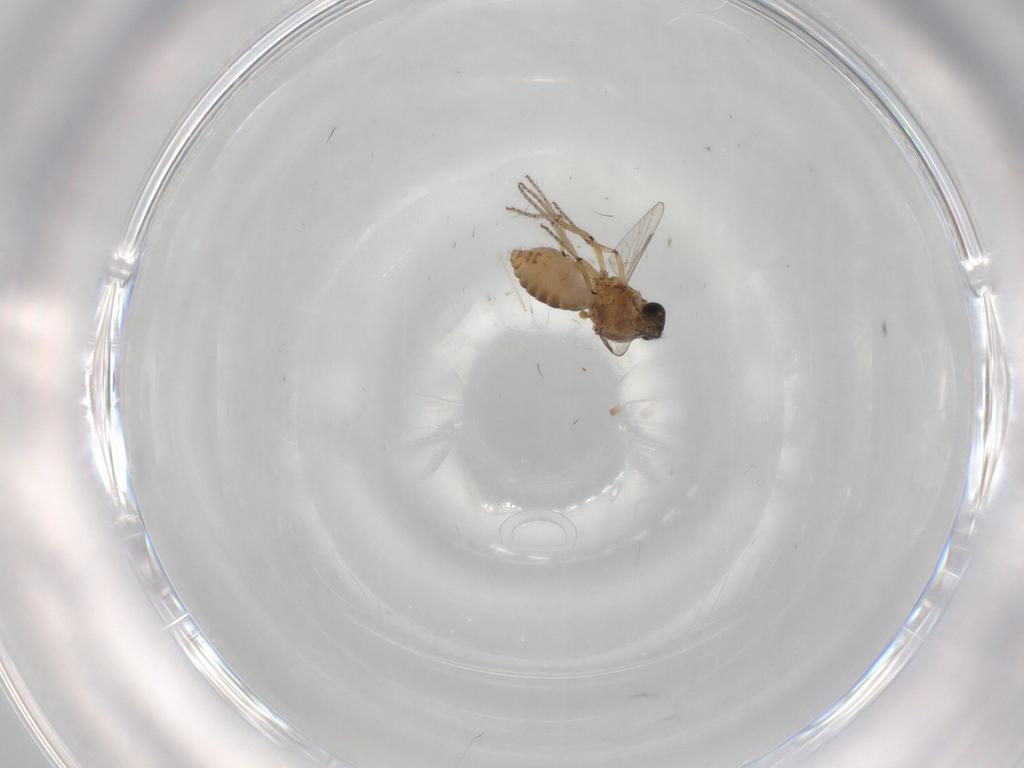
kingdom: Animalia
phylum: Arthropoda
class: Insecta
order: Diptera
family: Ceratopogonidae
